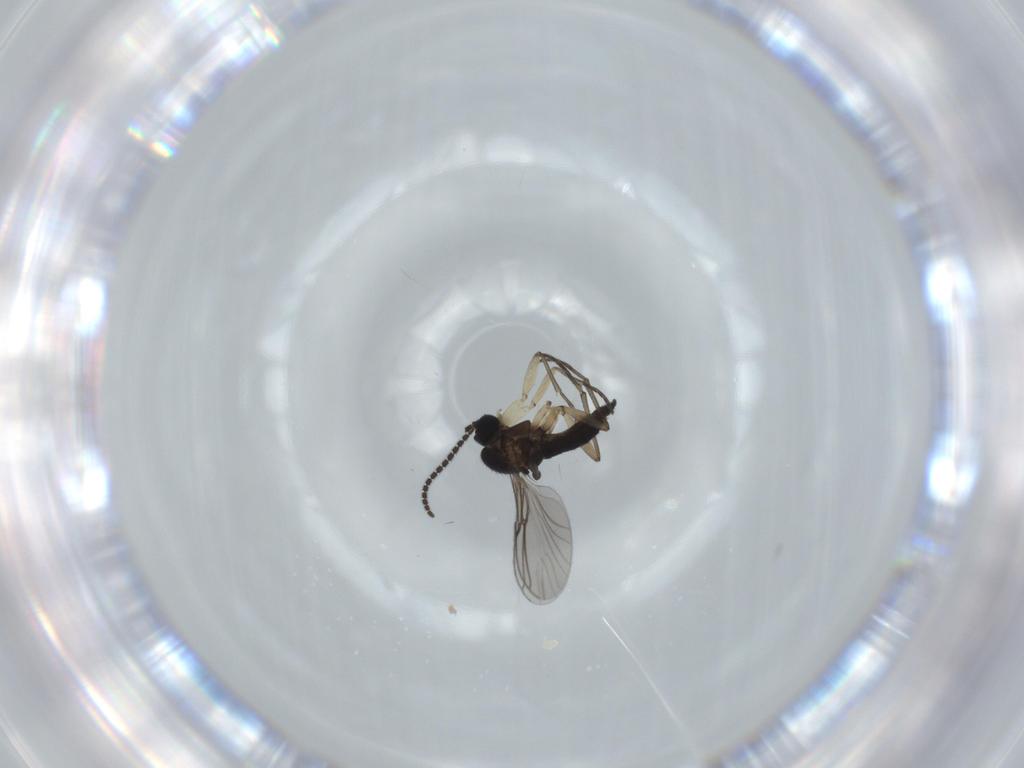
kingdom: Animalia
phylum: Arthropoda
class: Insecta
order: Diptera
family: Sciaridae
